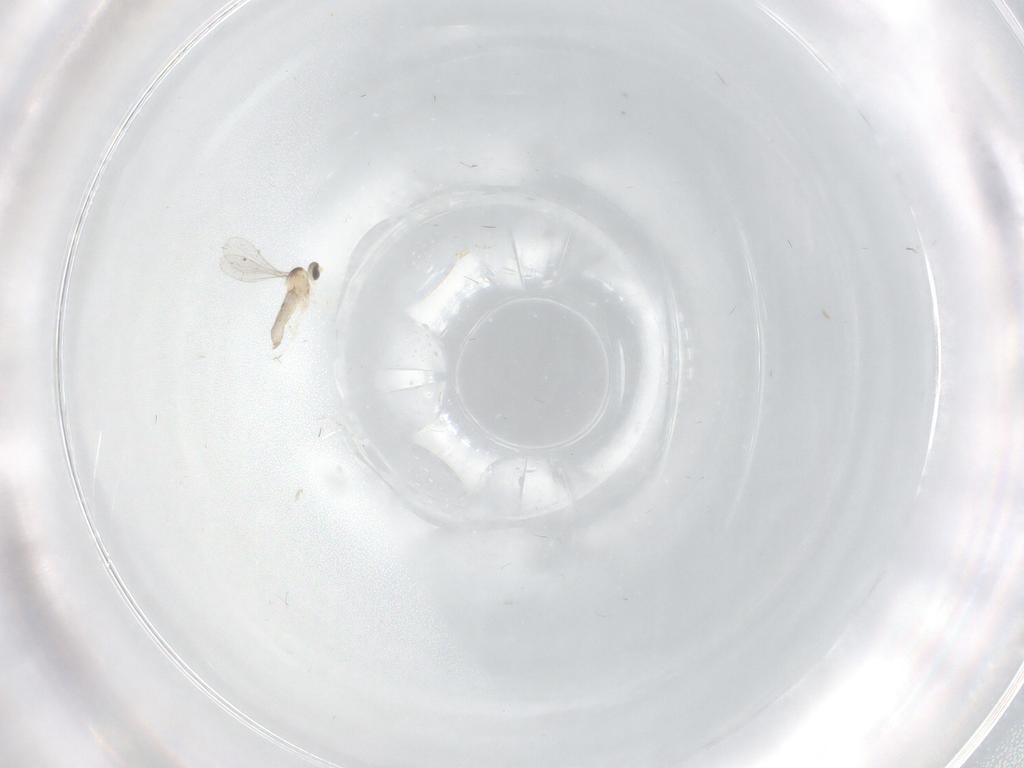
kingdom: Animalia
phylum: Arthropoda
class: Insecta
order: Diptera
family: Cecidomyiidae
